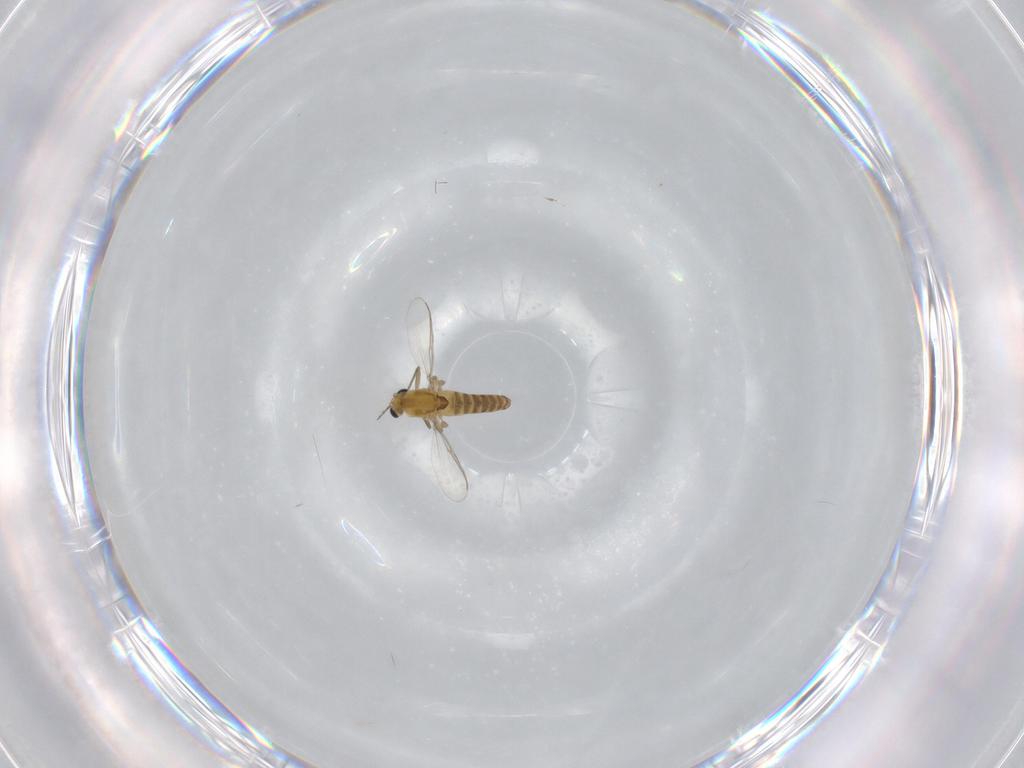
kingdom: Animalia
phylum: Arthropoda
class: Insecta
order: Diptera
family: Chironomidae
